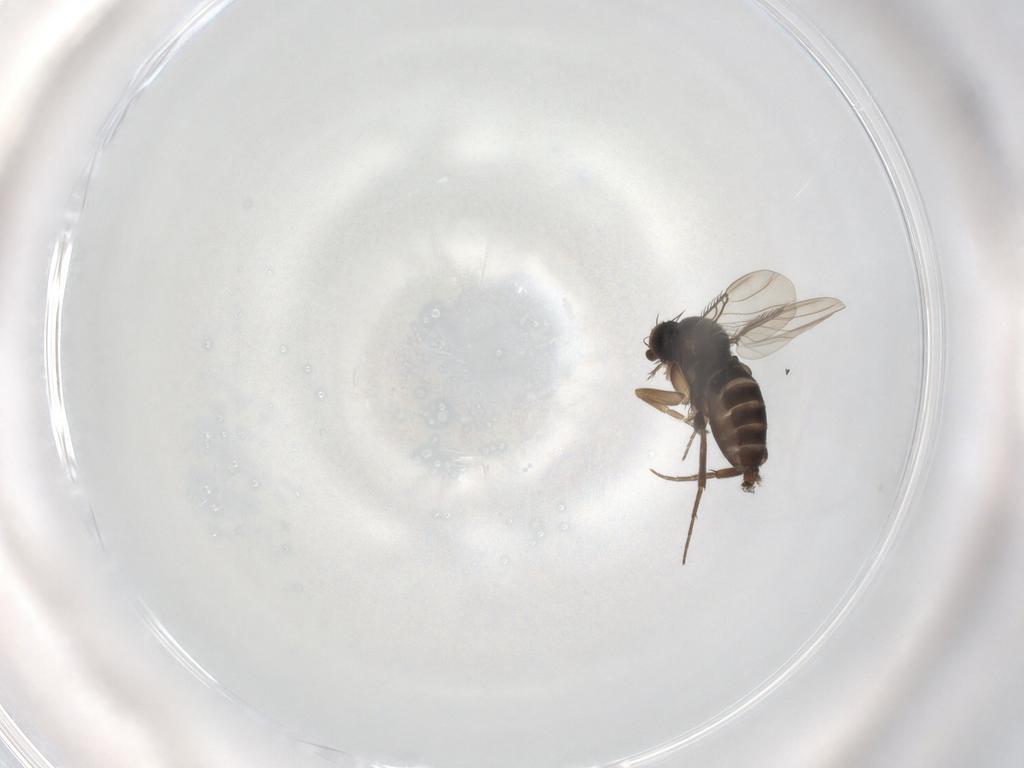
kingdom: Animalia
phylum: Arthropoda
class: Insecta
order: Diptera
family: Phoridae
